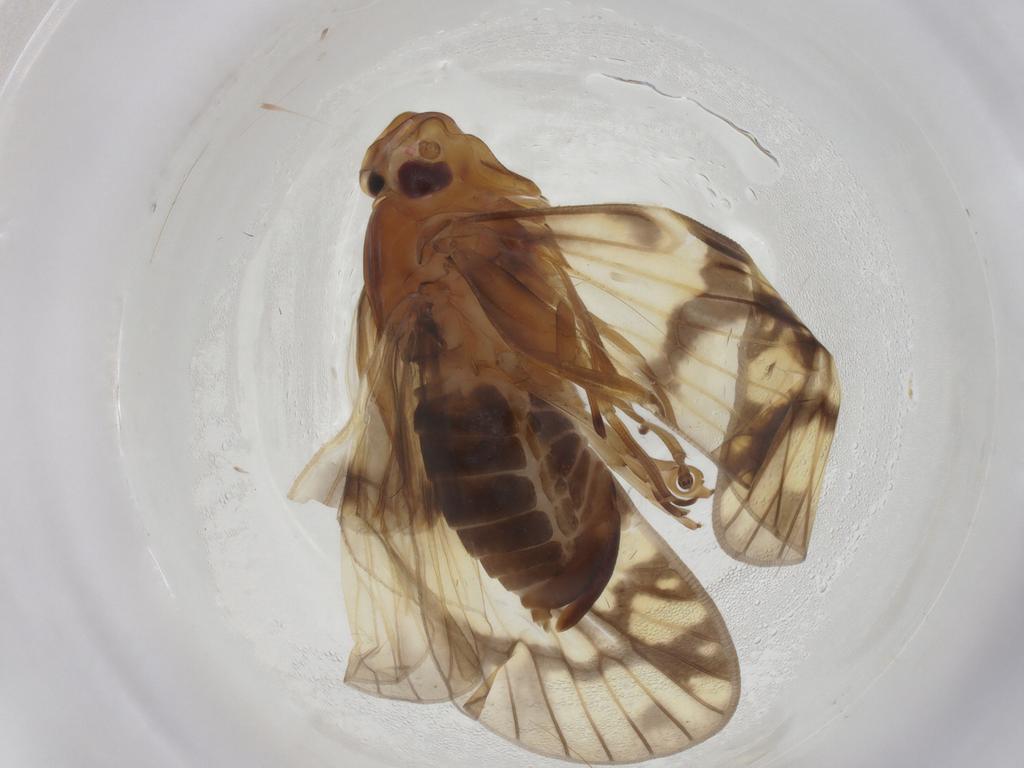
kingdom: Animalia
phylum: Arthropoda
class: Insecta
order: Hemiptera
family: Cixiidae
